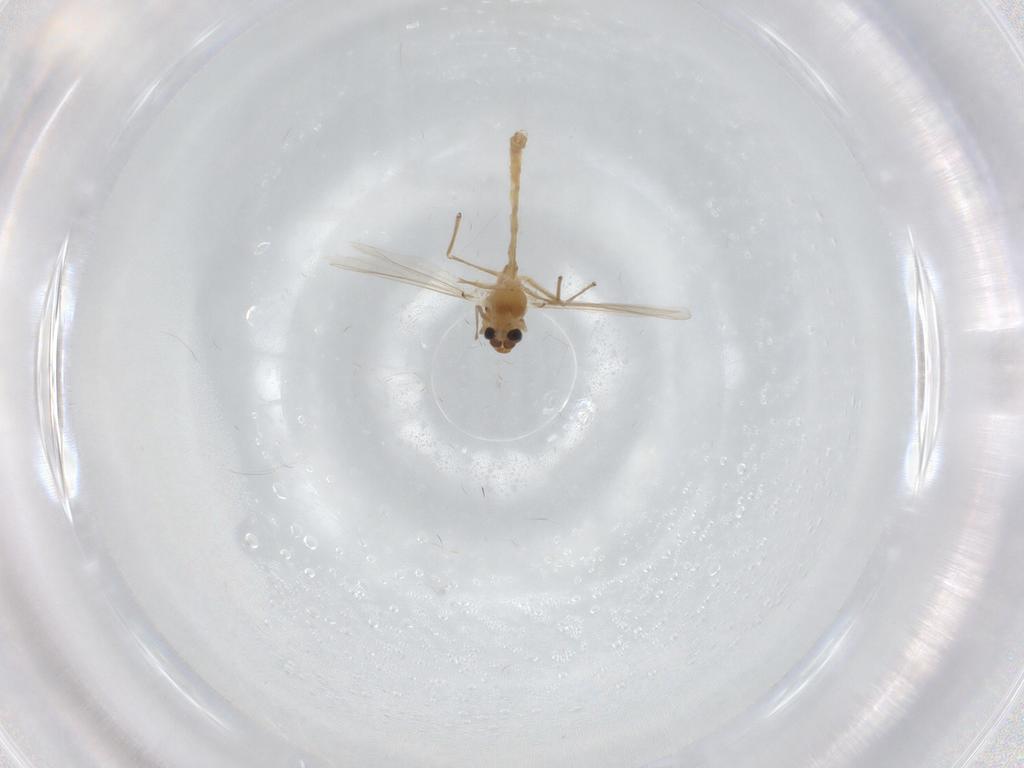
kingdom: Animalia
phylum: Arthropoda
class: Insecta
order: Diptera
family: Chironomidae
